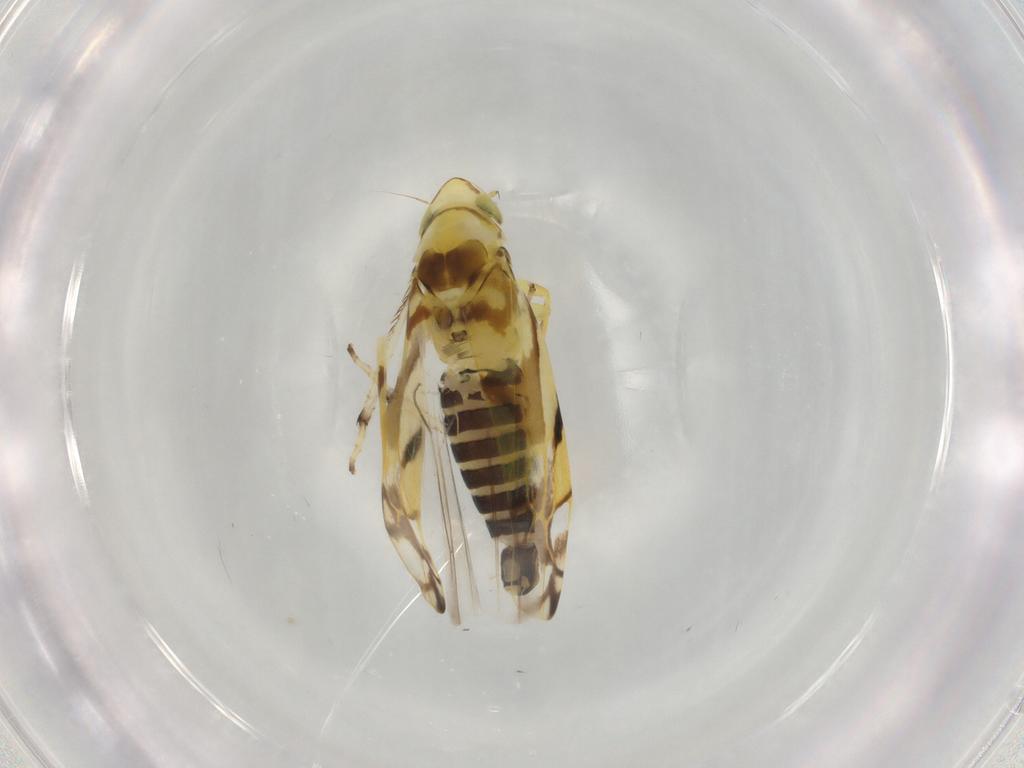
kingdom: Animalia
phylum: Arthropoda
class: Insecta
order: Hemiptera
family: Cicadellidae
